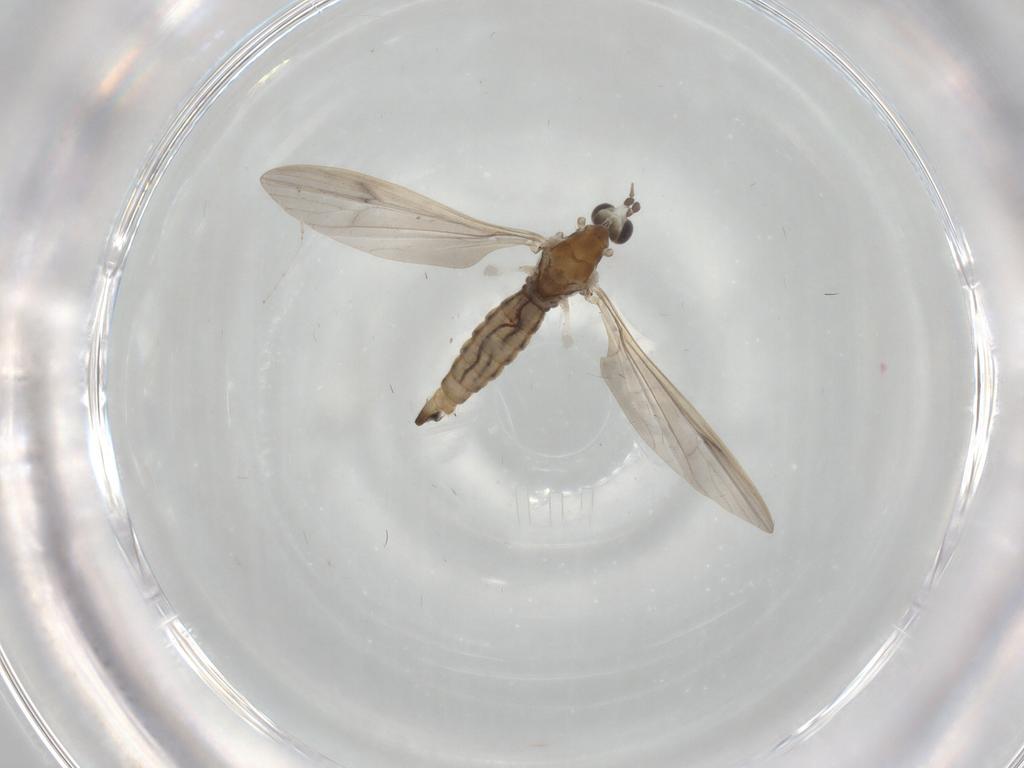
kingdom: Animalia
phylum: Arthropoda
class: Insecta
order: Diptera
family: Limoniidae
